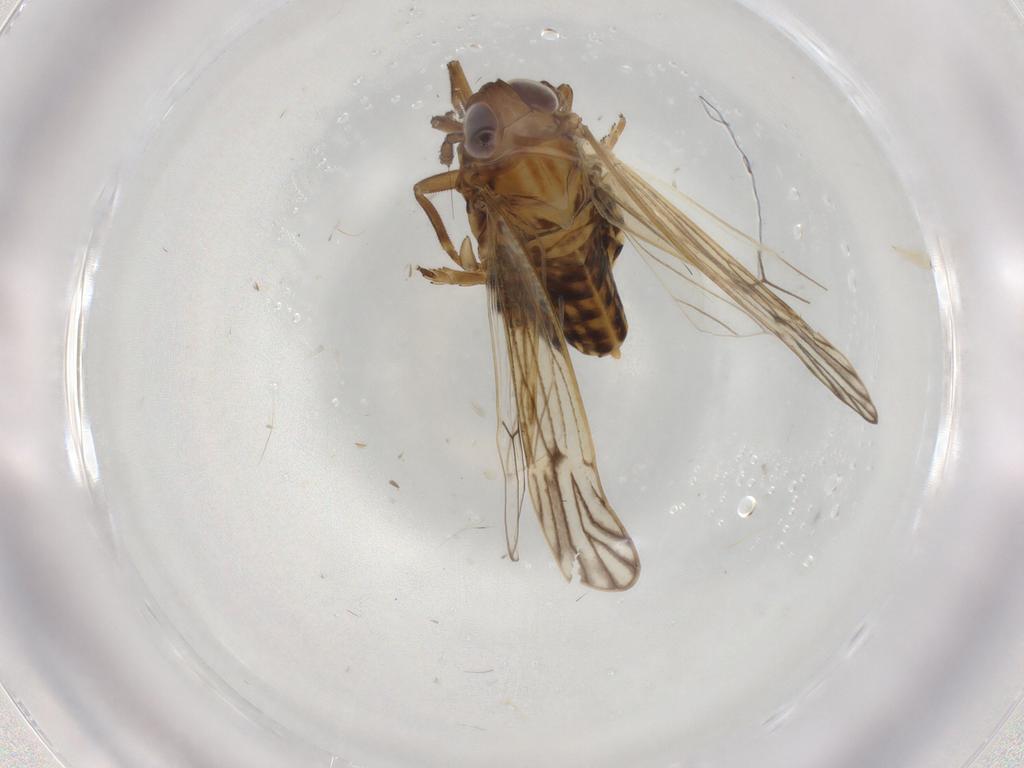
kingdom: Animalia
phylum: Arthropoda
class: Insecta
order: Hemiptera
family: Delphacidae
